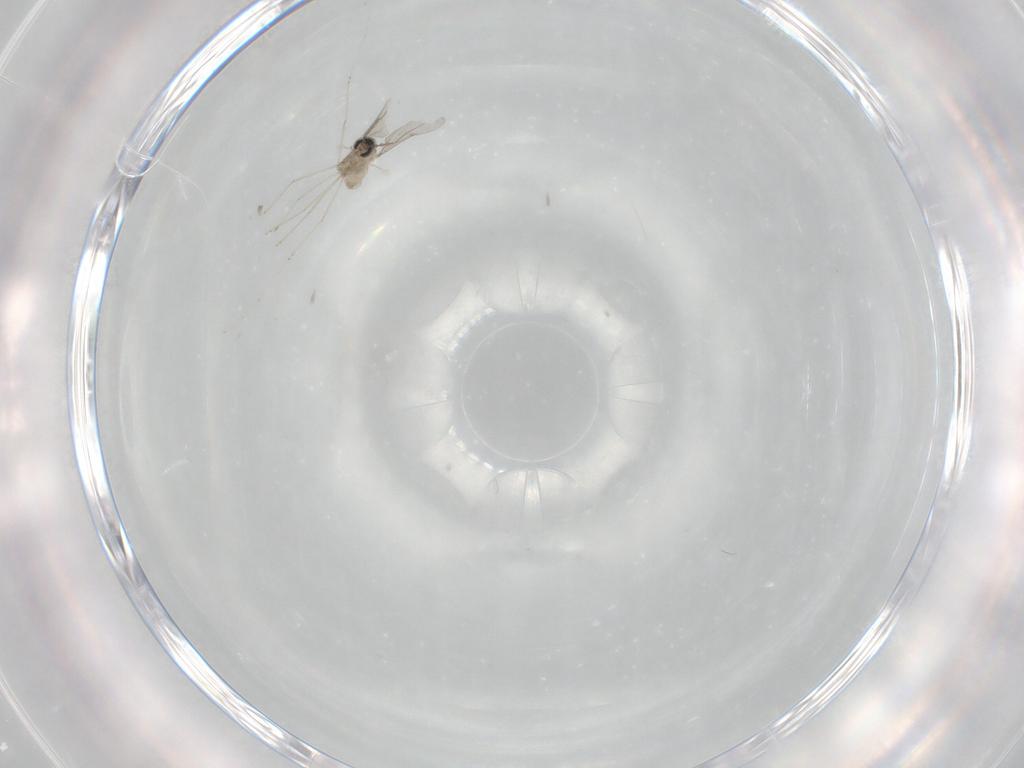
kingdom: Animalia
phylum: Arthropoda
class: Insecta
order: Diptera
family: Cecidomyiidae
